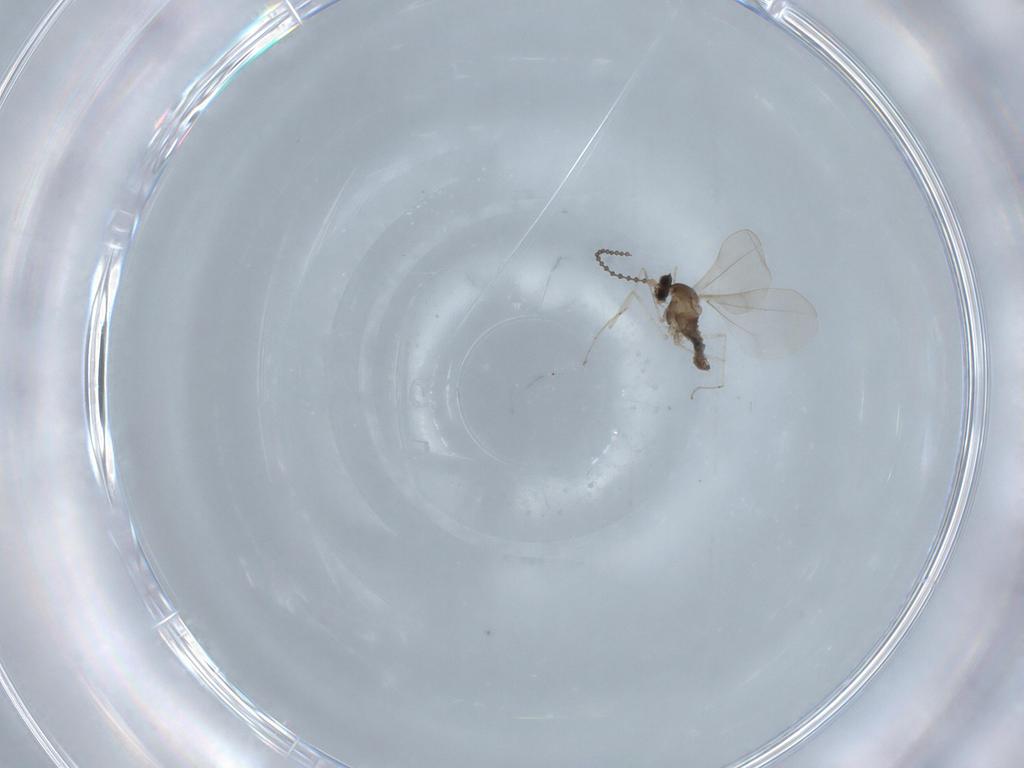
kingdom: Animalia
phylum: Arthropoda
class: Insecta
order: Diptera
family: Cecidomyiidae
